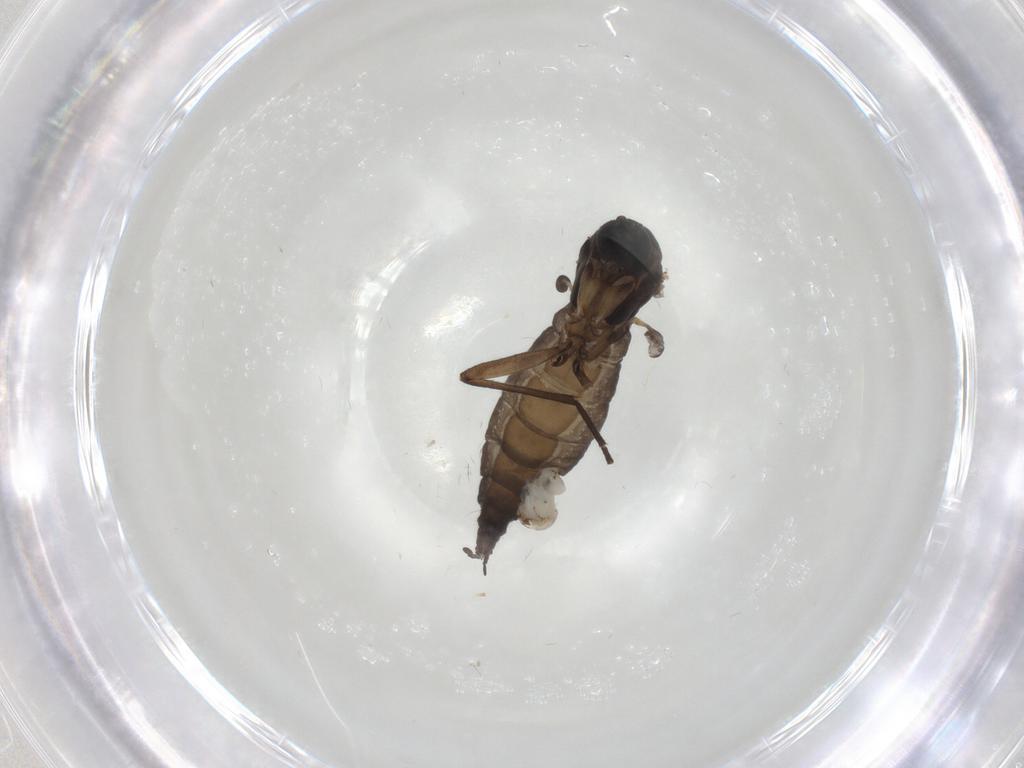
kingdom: Animalia
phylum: Arthropoda
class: Insecta
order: Diptera
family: Sciaridae
